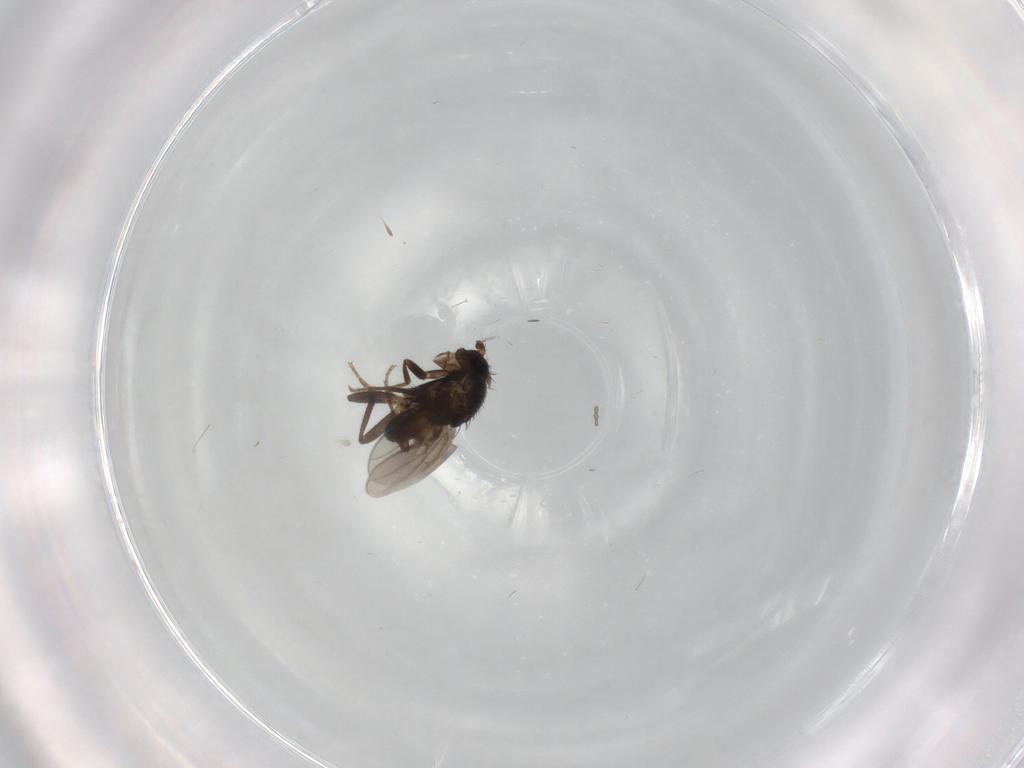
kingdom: Animalia
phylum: Arthropoda
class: Insecta
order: Diptera
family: Sphaeroceridae
